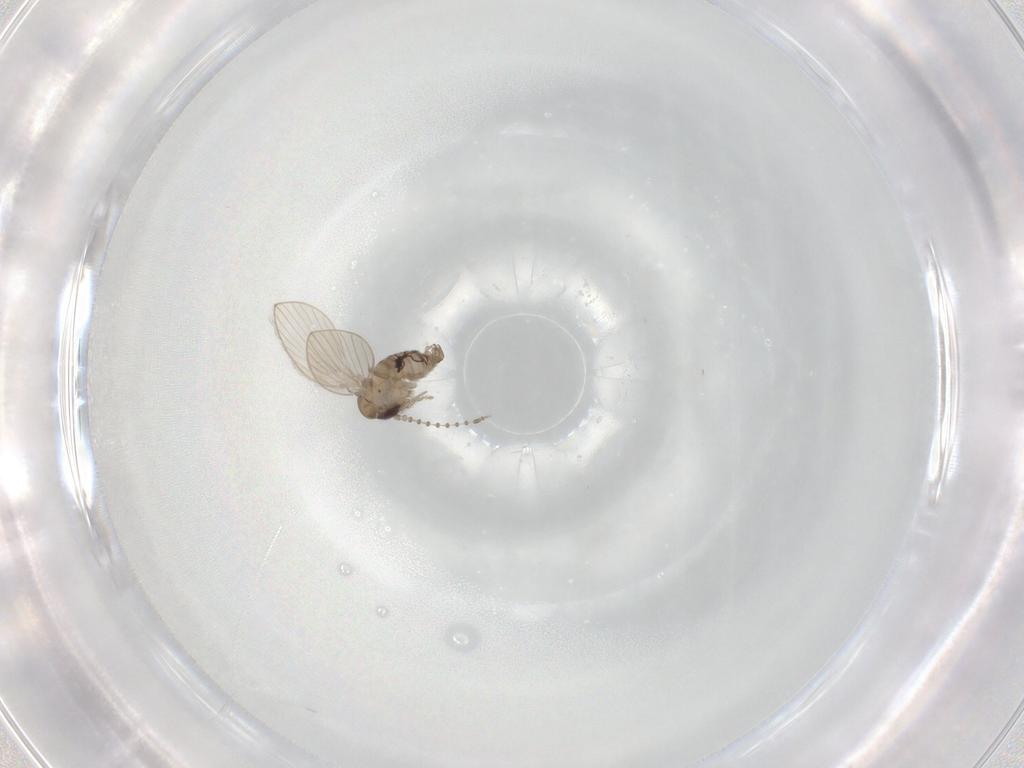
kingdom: Animalia
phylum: Arthropoda
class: Insecta
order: Diptera
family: Psychodidae
